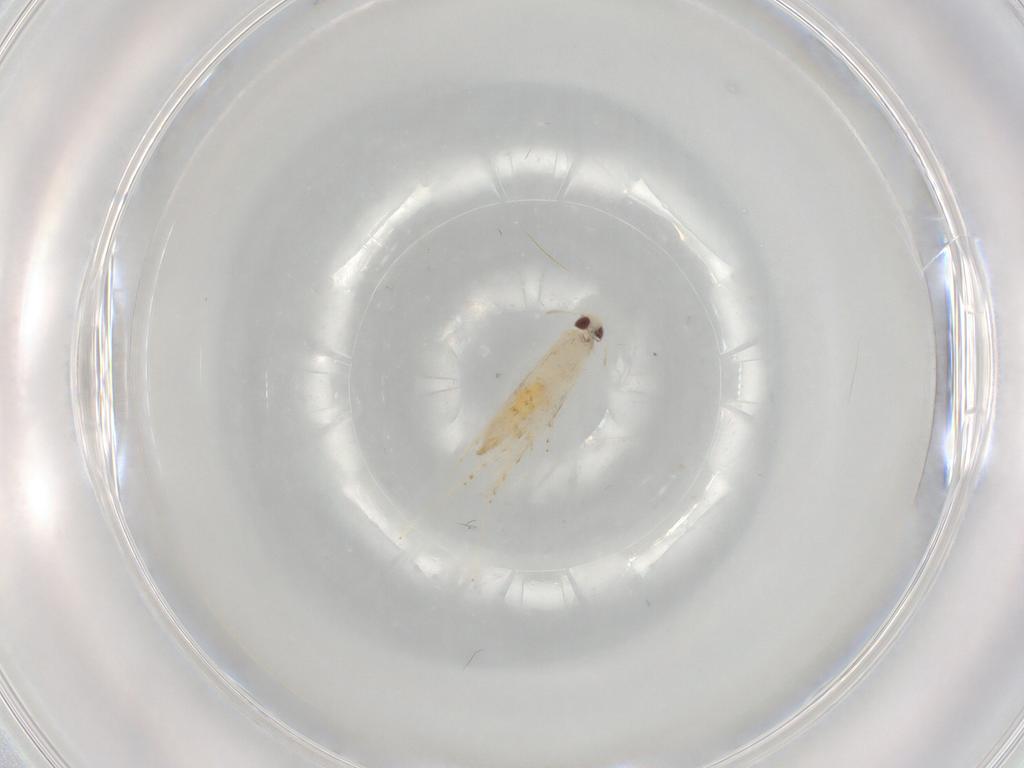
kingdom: Animalia
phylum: Arthropoda
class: Insecta
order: Lepidoptera
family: Gracillariidae
